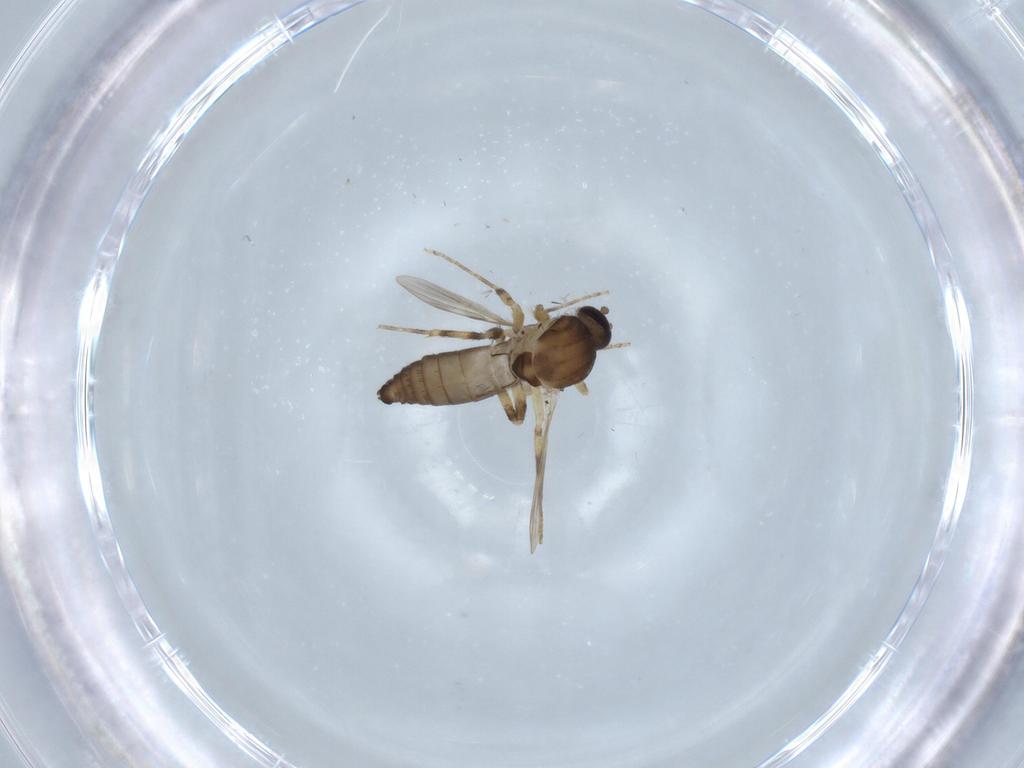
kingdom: Animalia
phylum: Arthropoda
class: Insecta
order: Diptera
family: Ceratopogonidae
